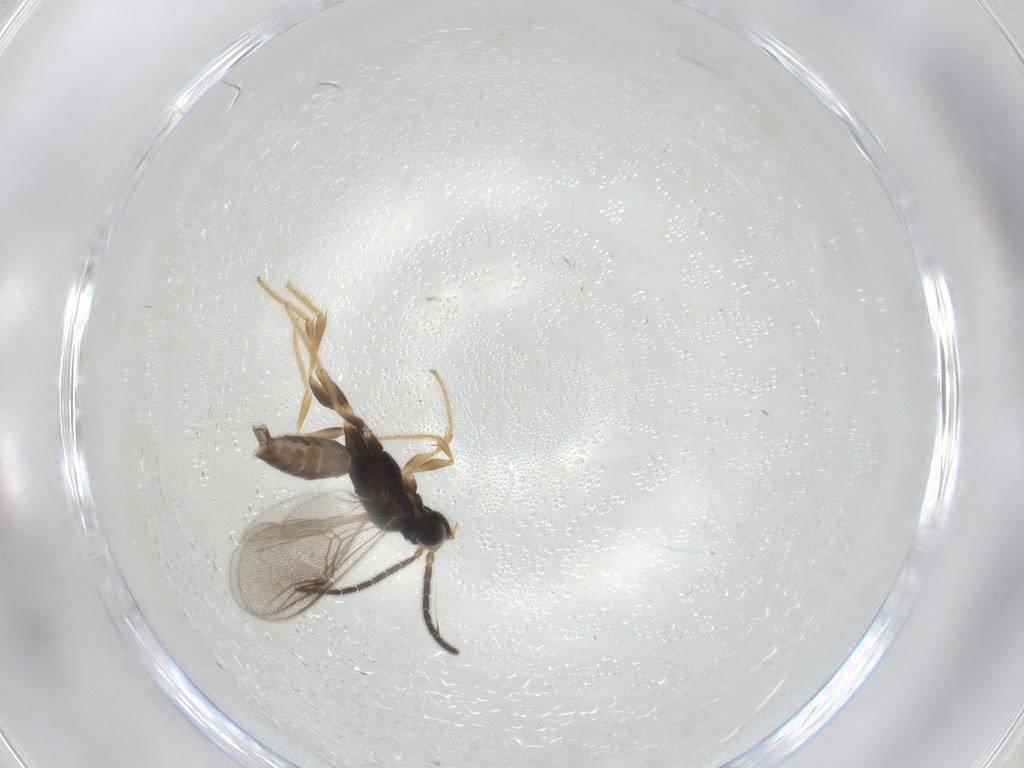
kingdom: Animalia
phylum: Arthropoda
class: Insecta
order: Hymenoptera
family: Dryinidae
